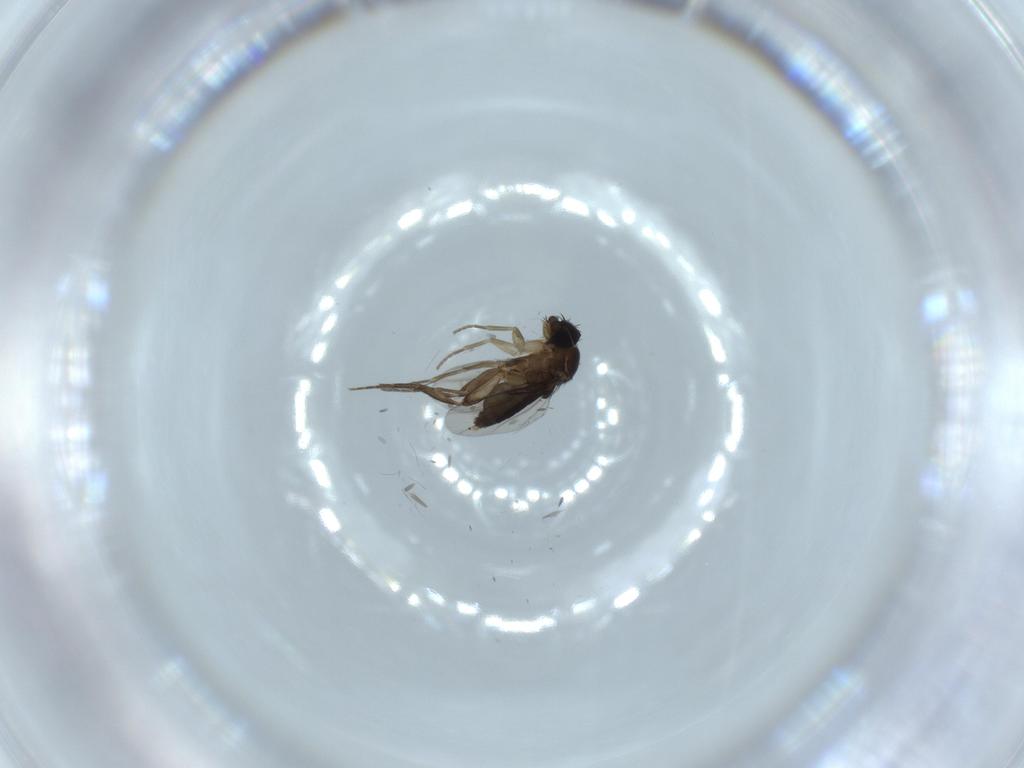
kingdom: Animalia
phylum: Arthropoda
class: Insecta
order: Diptera
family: Phoridae
